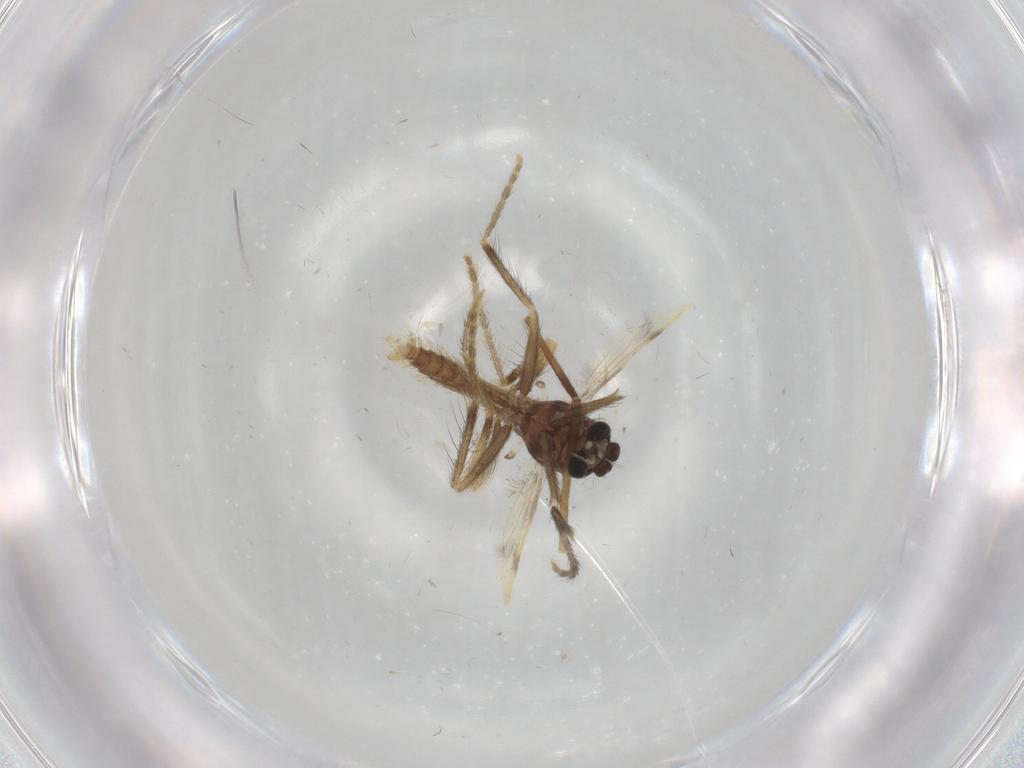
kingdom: Animalia
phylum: Arthropoda
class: Insecta
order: Diptera
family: Corethrellidae
